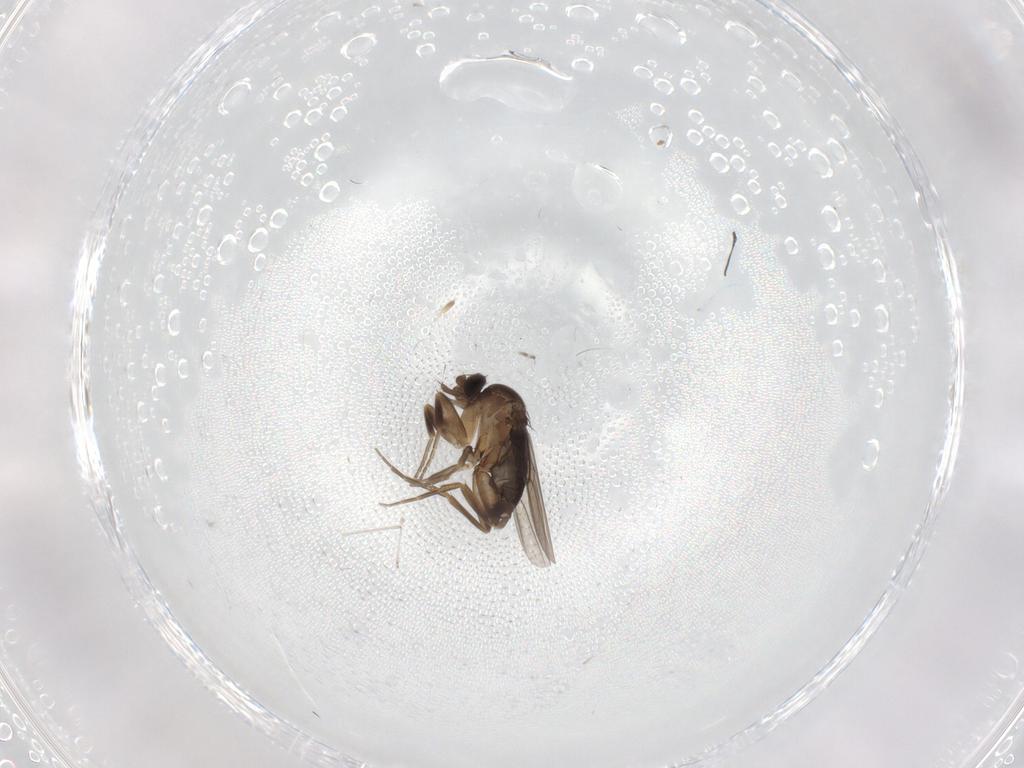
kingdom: Animalia
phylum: Arthropoda
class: Insecta
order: Diptera
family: Phoridae
